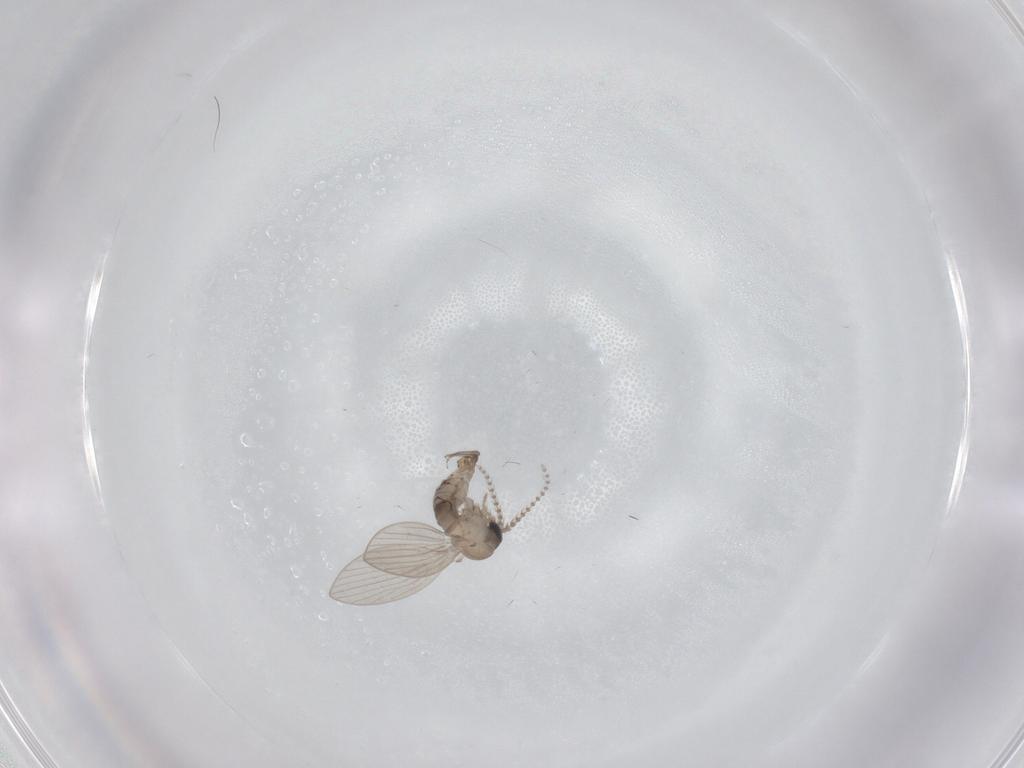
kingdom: Animalia
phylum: Arthropoda
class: Insecta
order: Diptera
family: Psychodidae
